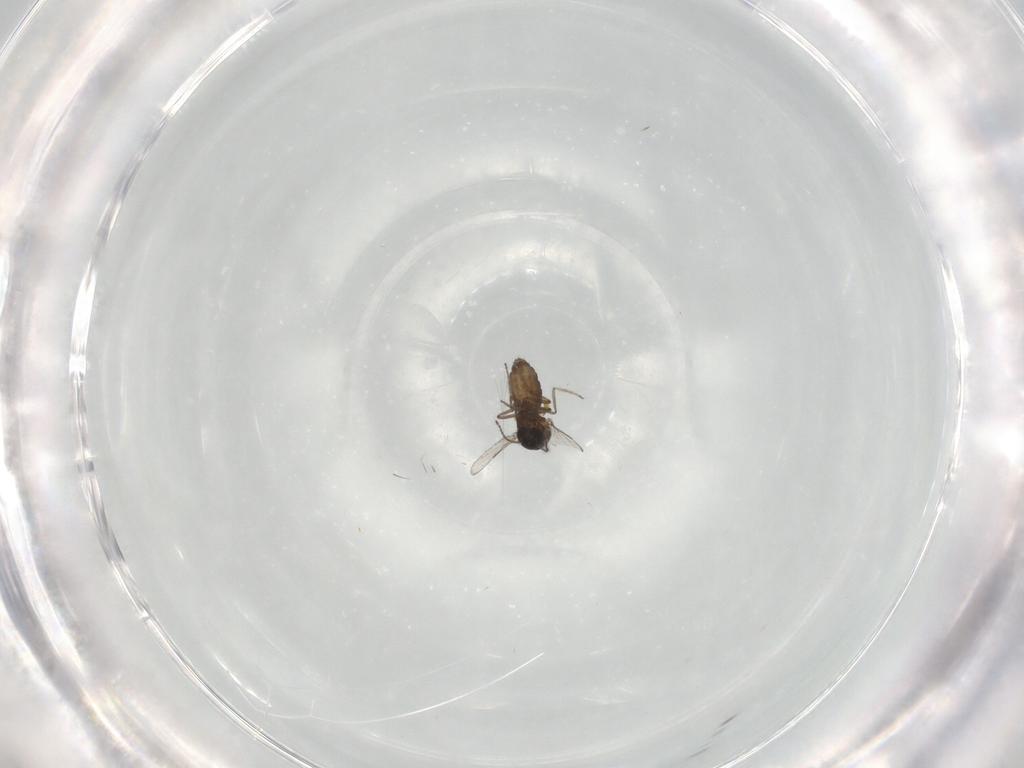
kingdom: Animalia
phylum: Arthropoda
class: Insecta
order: Diptera
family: Ceratopogonidae
